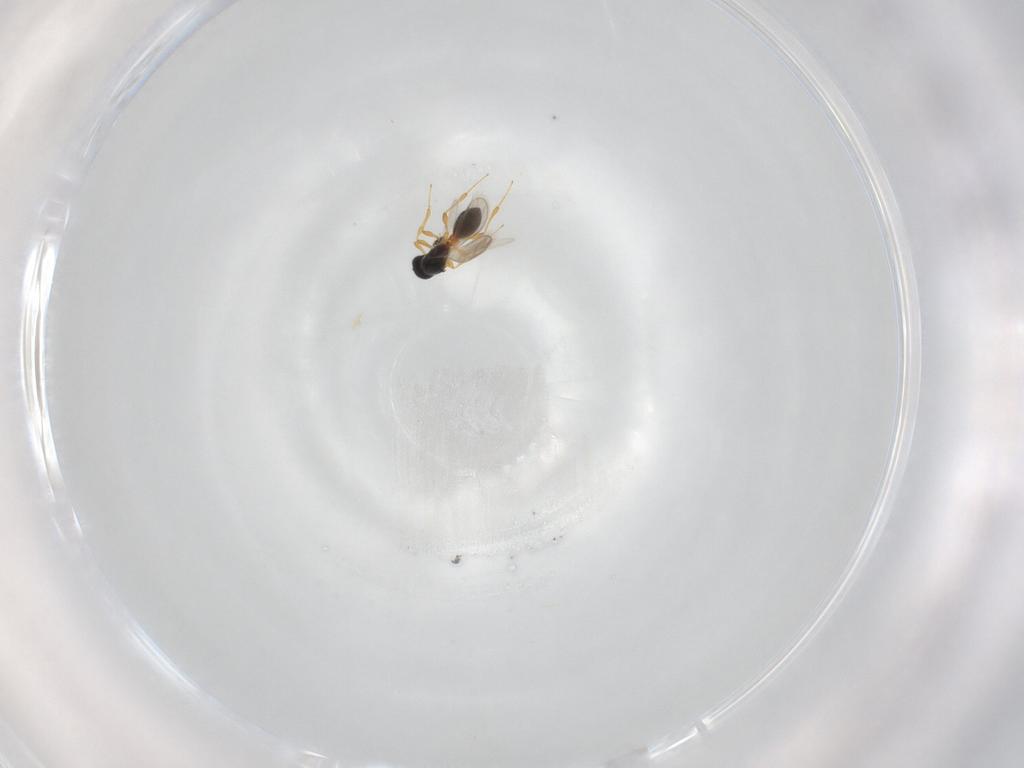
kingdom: Animalia
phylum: Arthropoda
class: Insecta
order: Hymenoptera
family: Platygastridae
